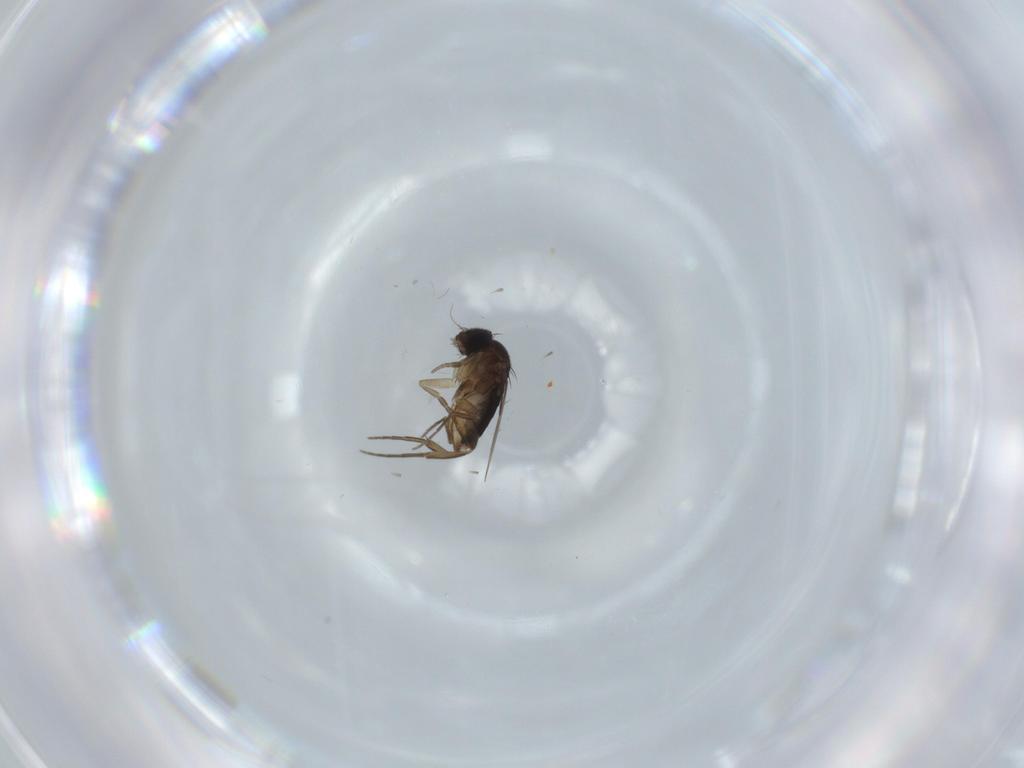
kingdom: Animalia
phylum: Arthropoda
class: Insecta
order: Diptera
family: Phoridae
